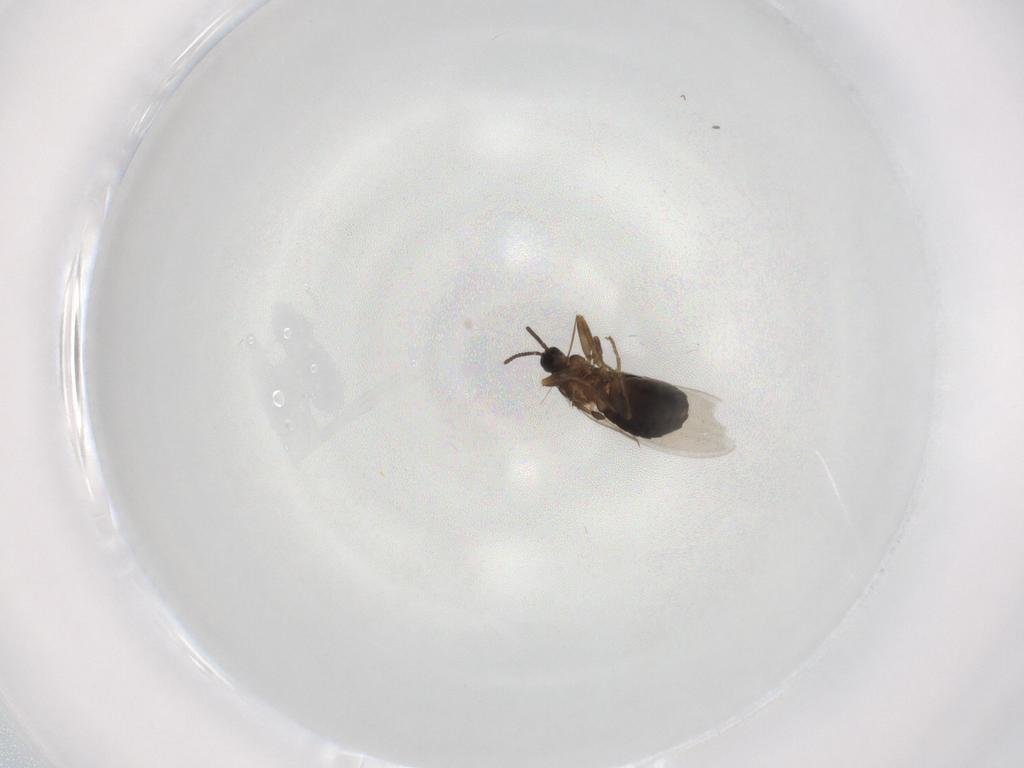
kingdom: Animalia
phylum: Arthropoda
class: Insecta
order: Diptera
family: Scatopsidae
